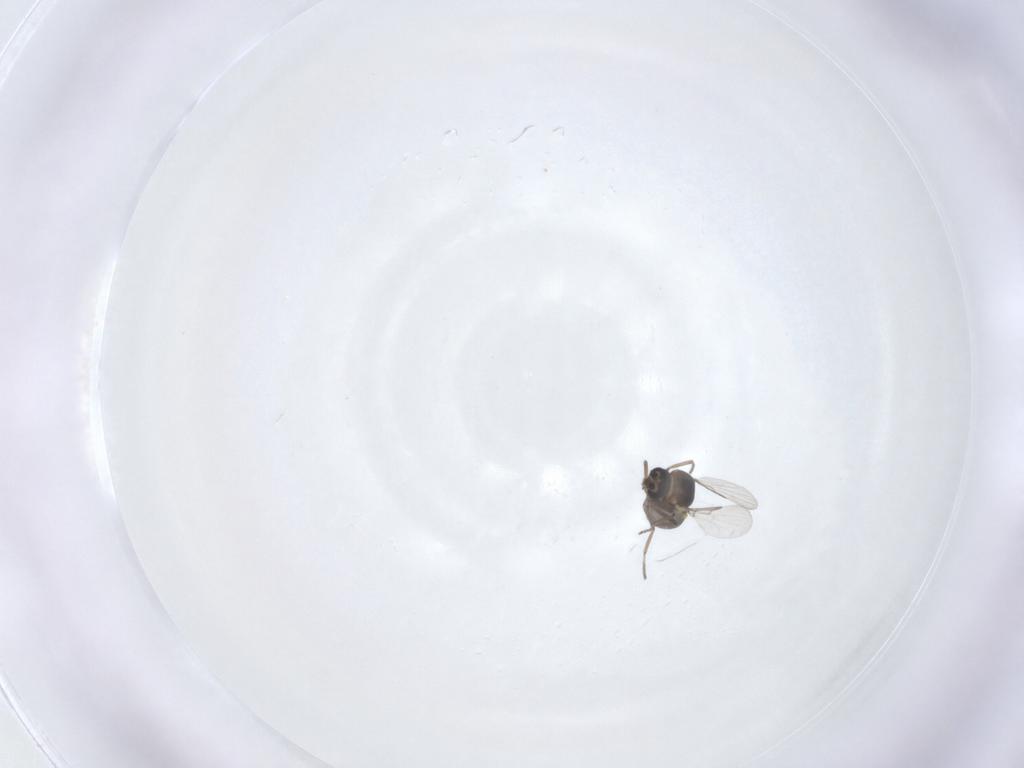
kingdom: Animalia
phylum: Arthropoda
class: Insecta
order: Diptera
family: Ceratopogonidae
